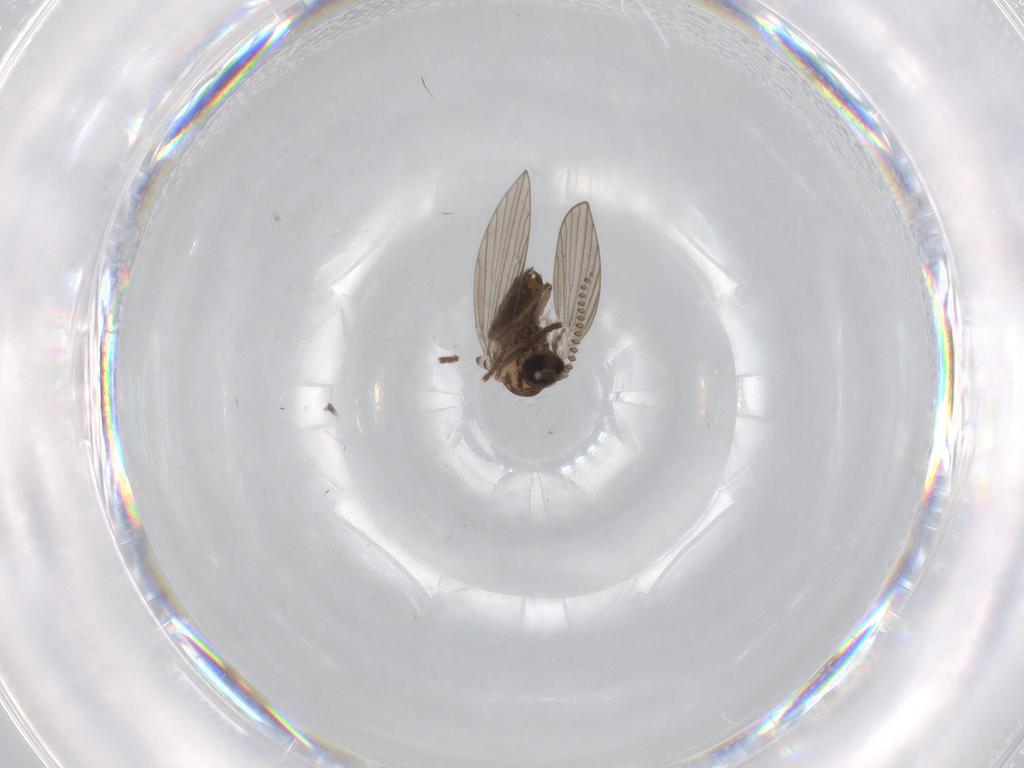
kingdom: Animalia
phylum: Arthropoda
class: Insecta
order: Diptera
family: Phoridae
